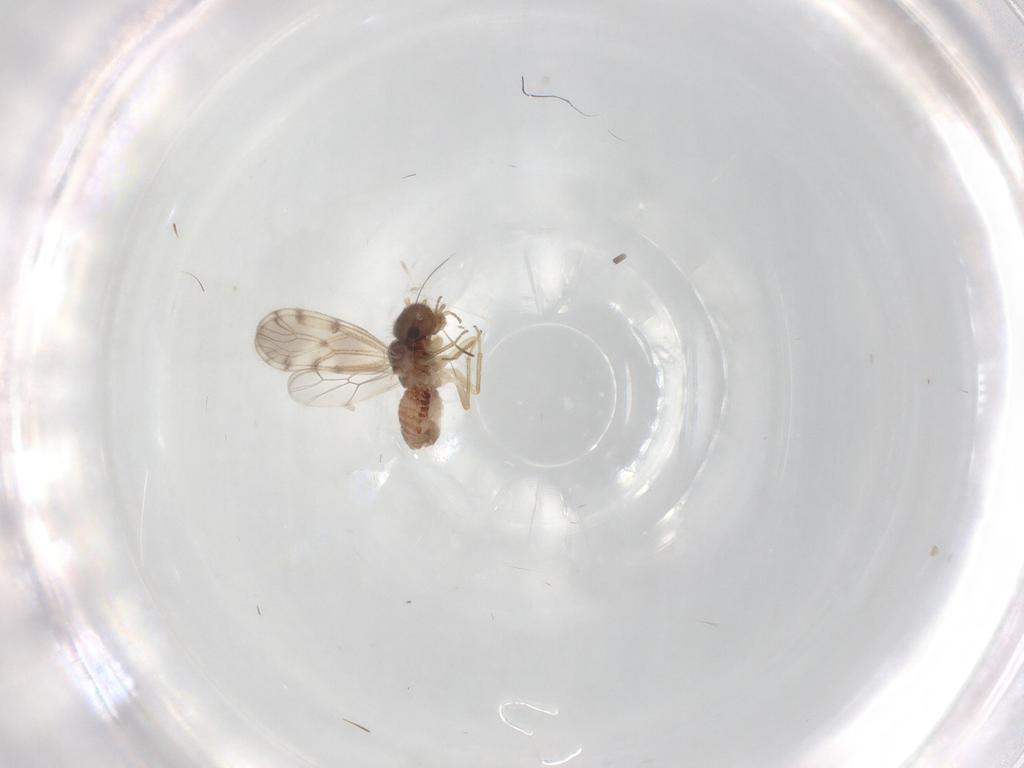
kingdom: Animalia
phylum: Arthropoda
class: Insecta
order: Psocodea
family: Peripsocidae
